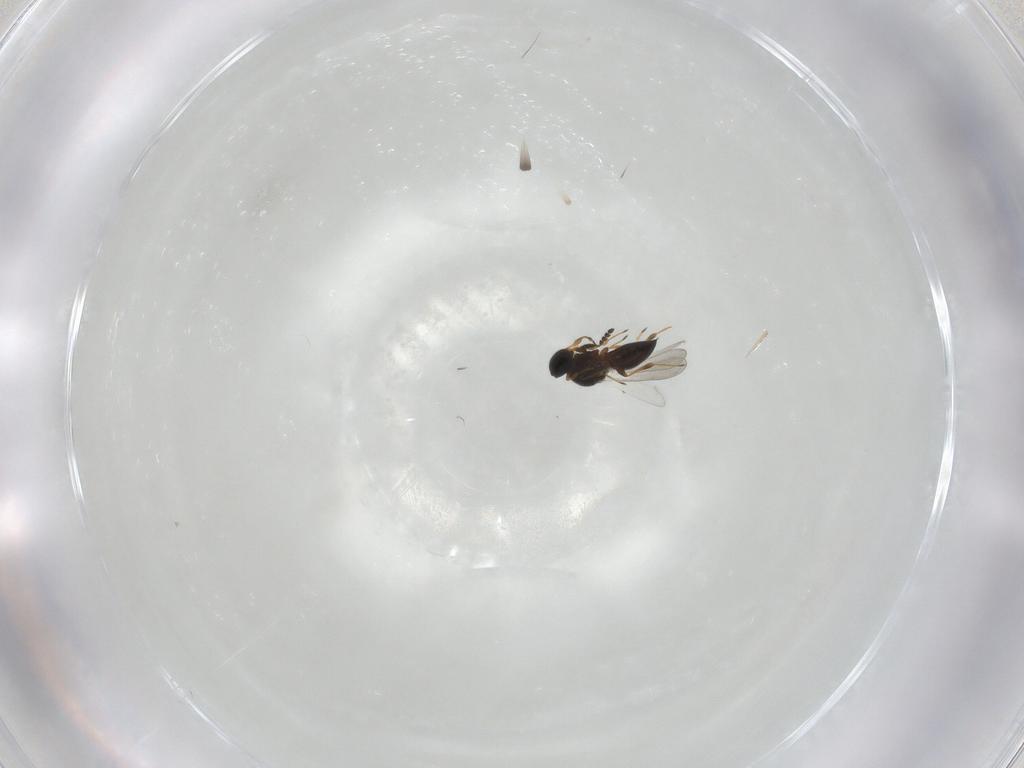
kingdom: Animalia
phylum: Arthropoda
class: Insecta
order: Hymenoptera
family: Platygastridae
